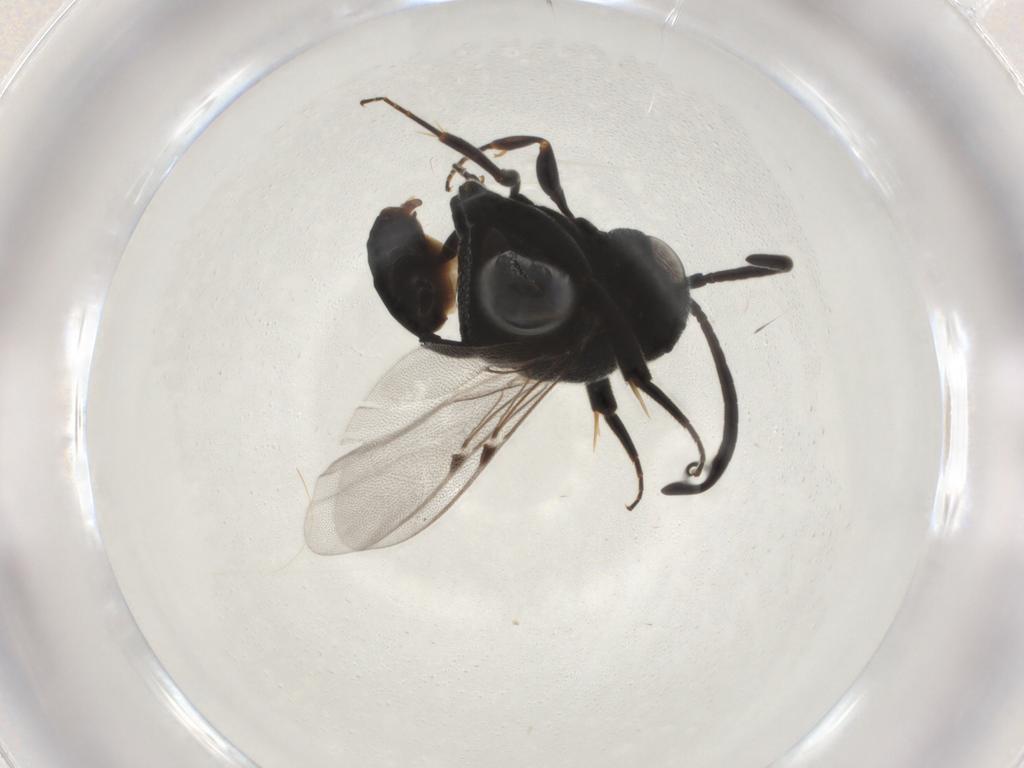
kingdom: Animalia
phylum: Arthropoda
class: Insecta
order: Hymenoptera
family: Evaniidae
